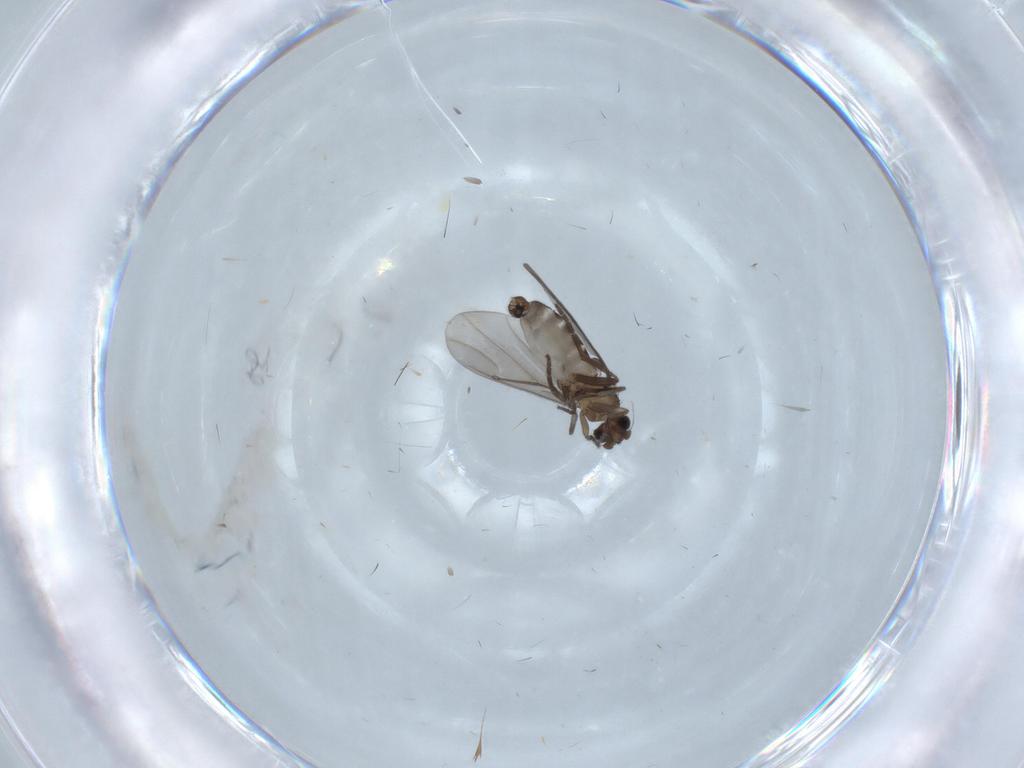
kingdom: Animalia
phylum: Arthropoda
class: Insecta
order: Diptera
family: Phoridae
